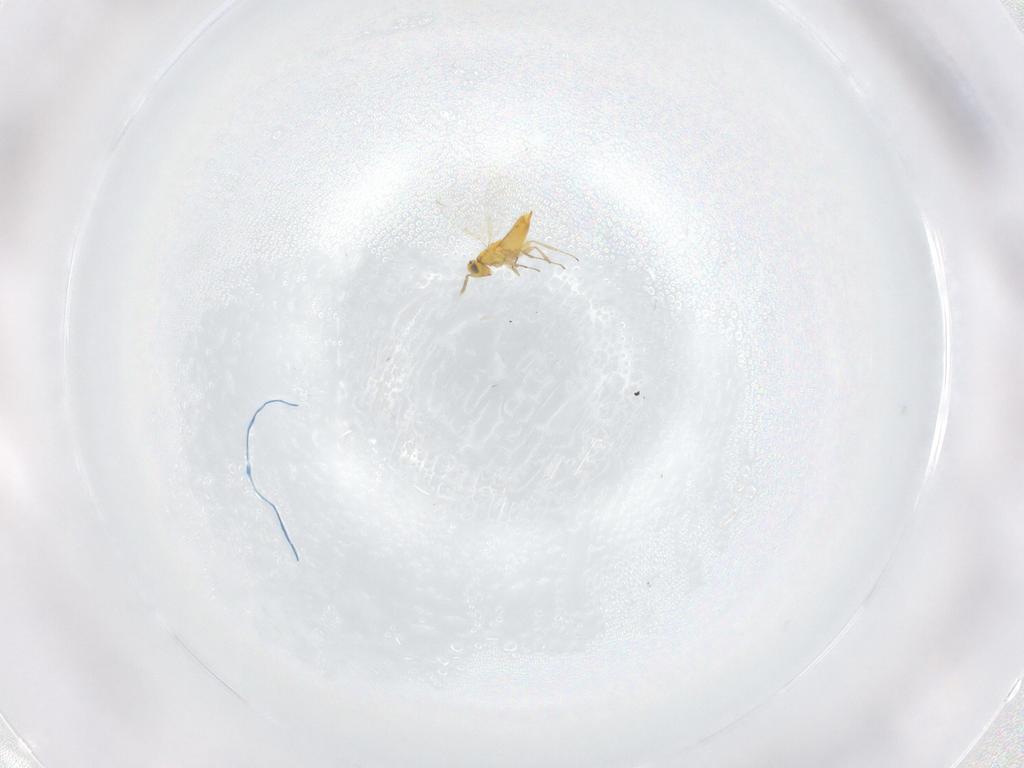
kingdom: Animalia
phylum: Arthropoda
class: Insecta
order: Hymenoptera
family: Aphelinidae
